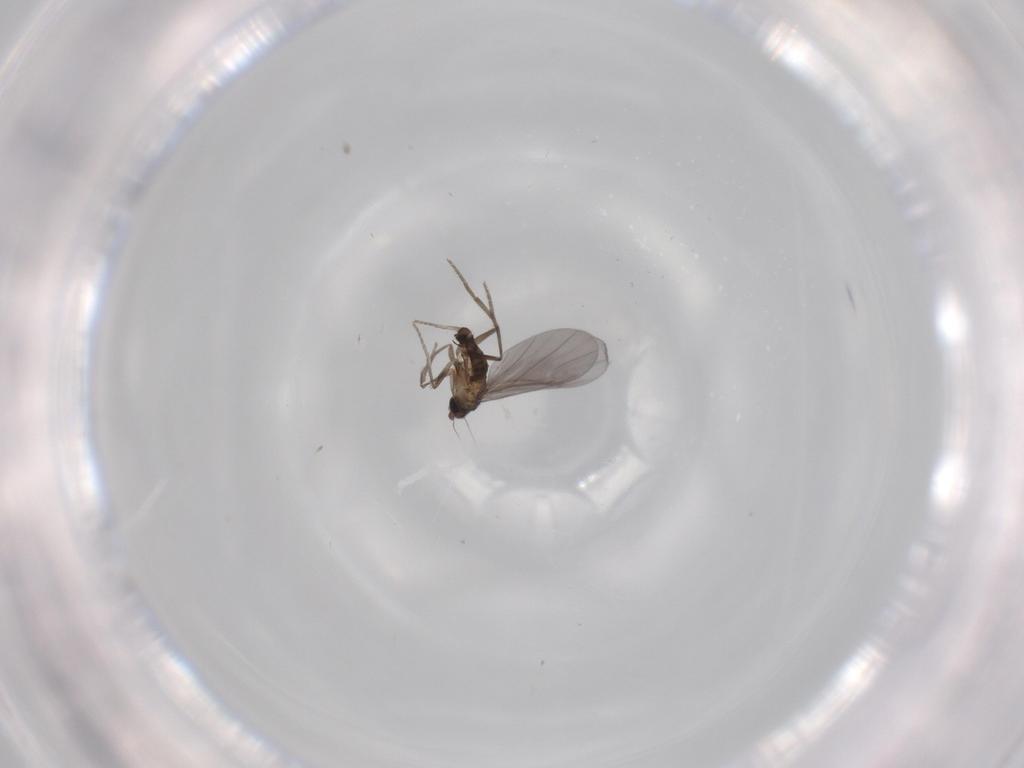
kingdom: Animalia
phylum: Arthropoda
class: Insecta
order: Diptera
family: Phoridae
